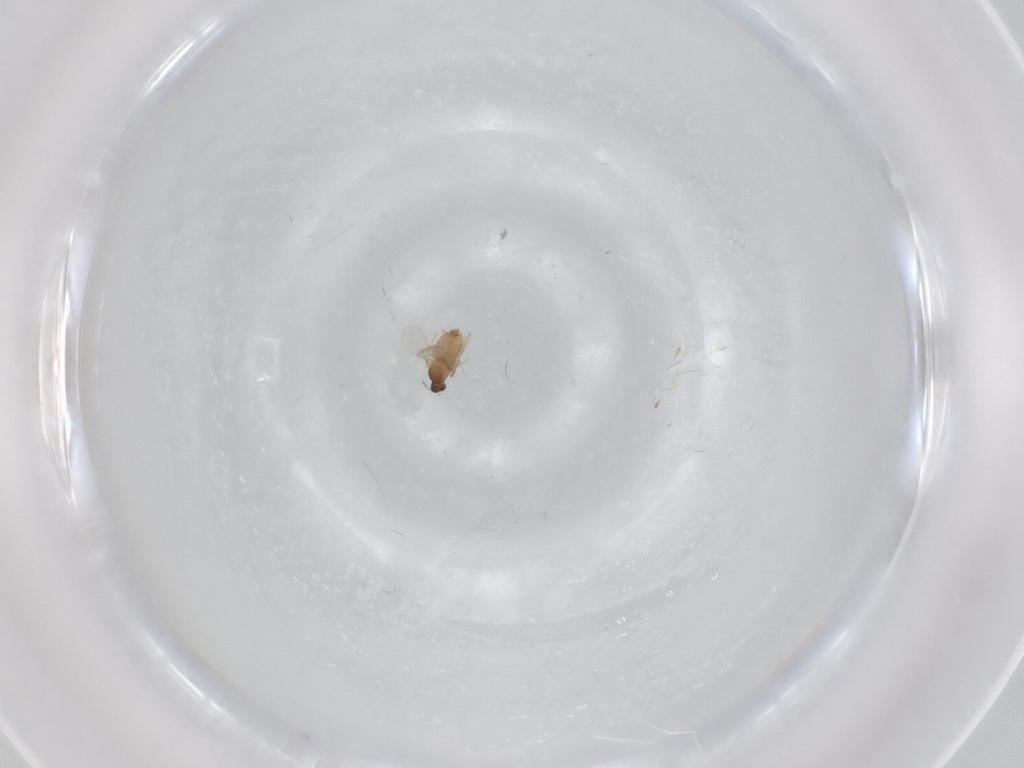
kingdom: Animalia
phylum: Arthropoda
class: Insecta
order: Diptera
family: Cecidomyiidae
